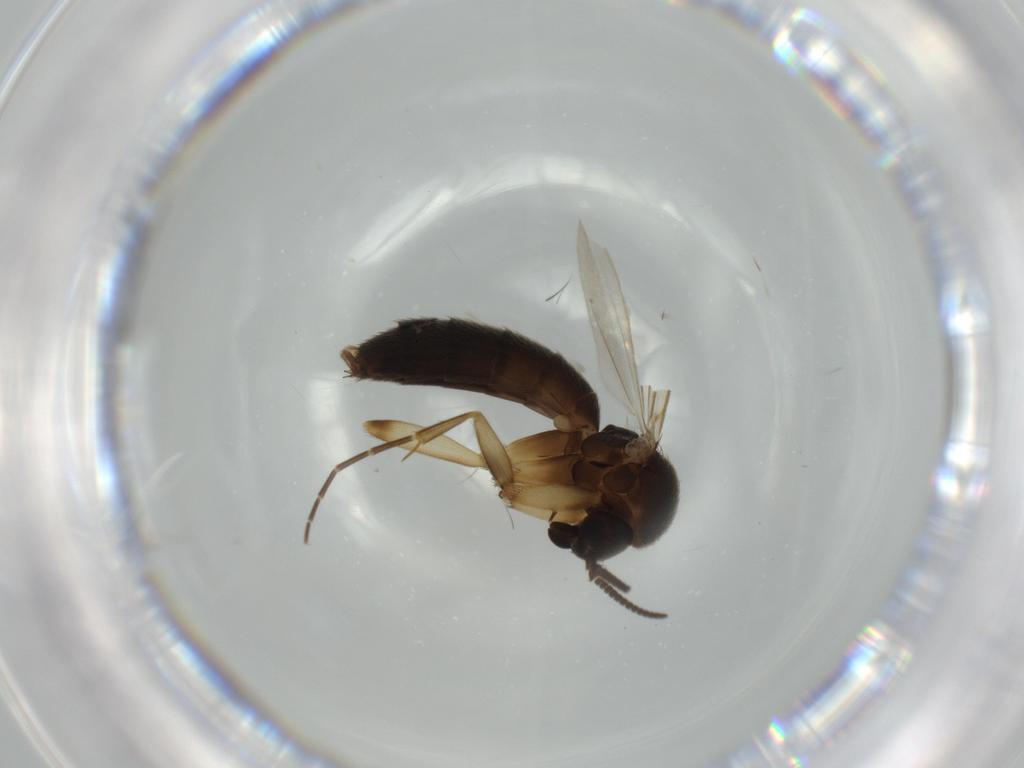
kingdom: Animalia
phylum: Arthropoda
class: Insecta
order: Diptera
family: Mycetophilidae
